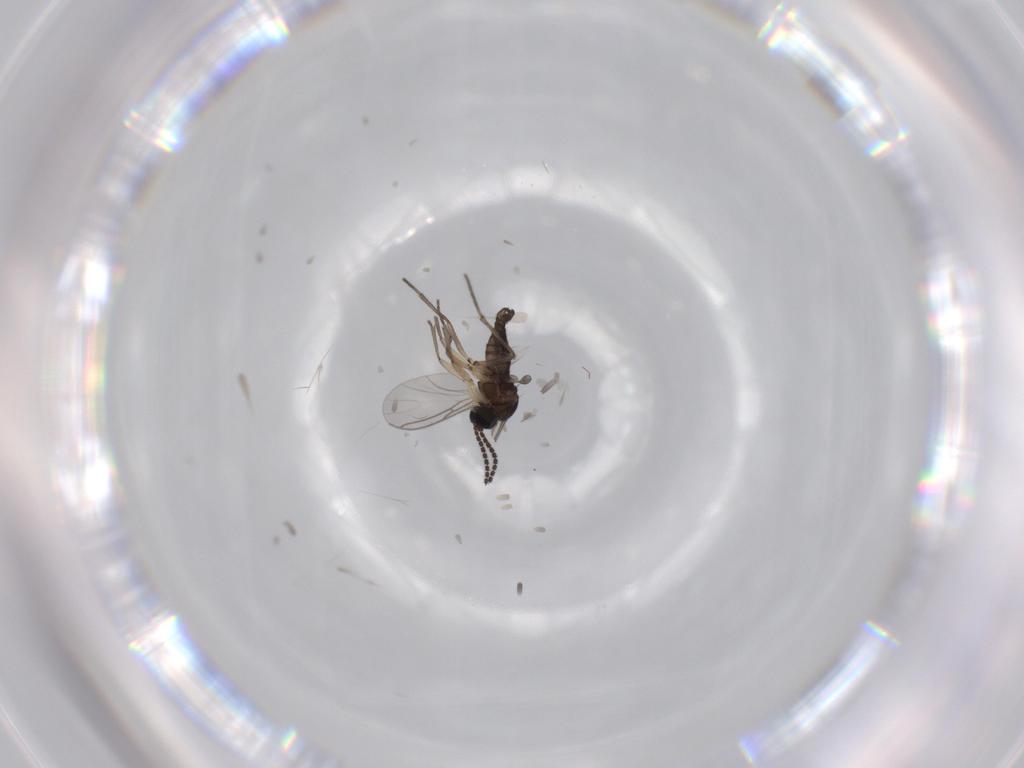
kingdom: Animalia
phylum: Arthropoda
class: Insecta
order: Diptera
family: Sciaridae
